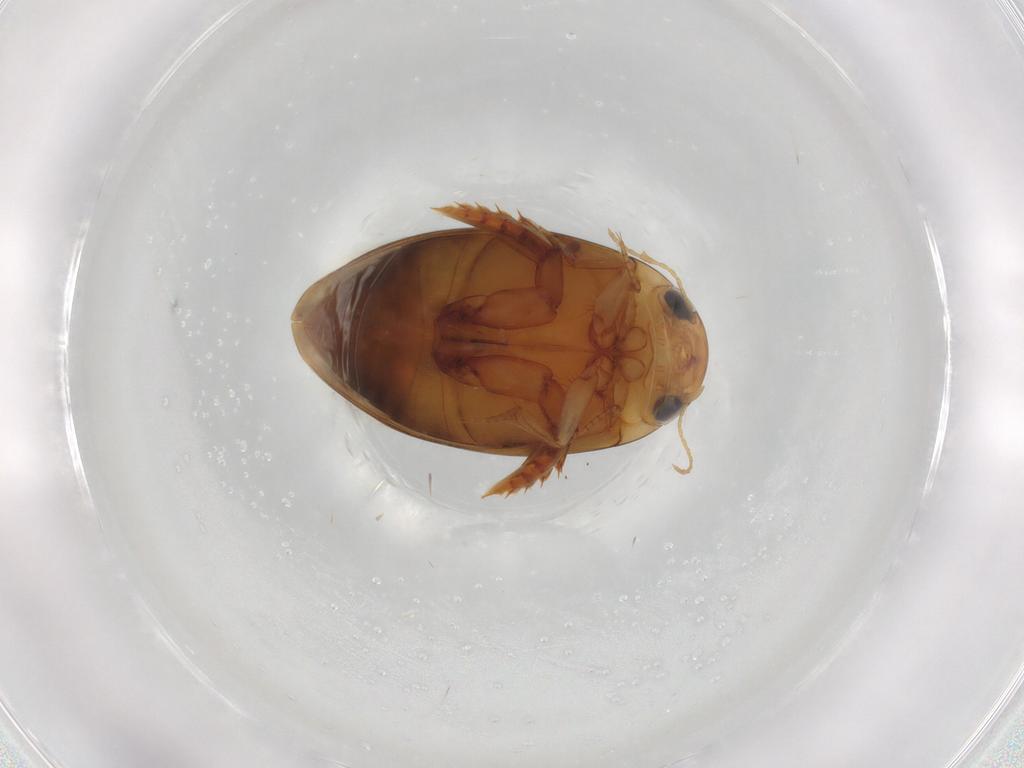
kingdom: Animalia
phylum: Arthropoda
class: Insecta
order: Coleoptera
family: Dytiscidae
